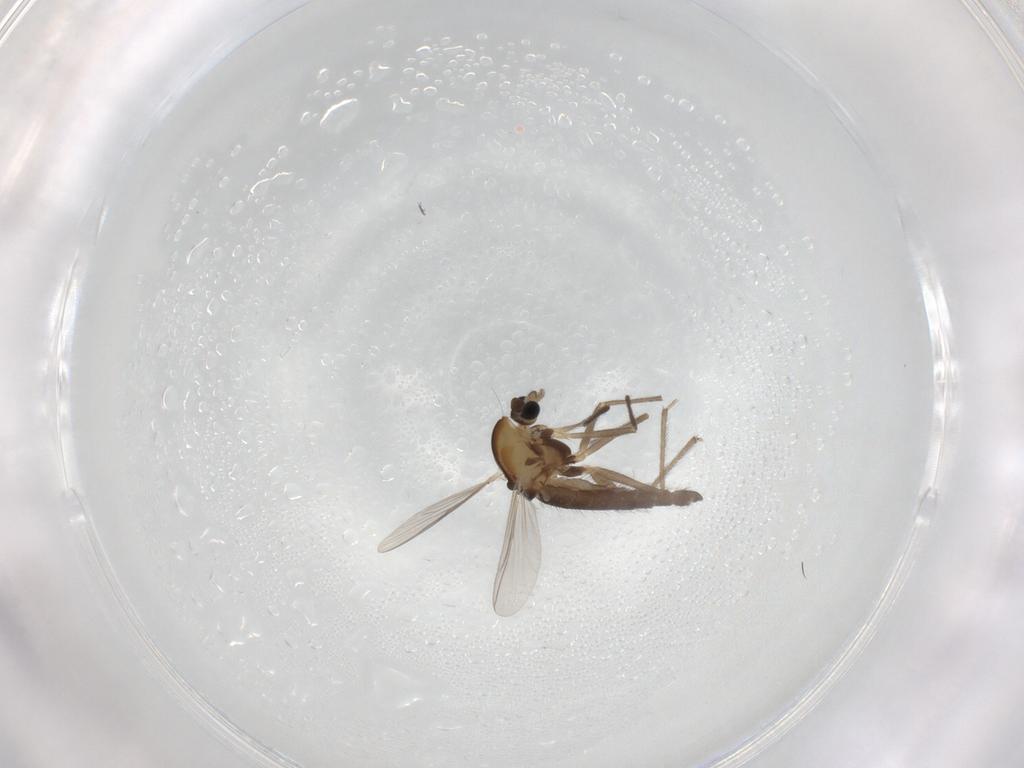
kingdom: Animalia
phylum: Arthropoda
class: Insecta
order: Diptera
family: Chironomidae
